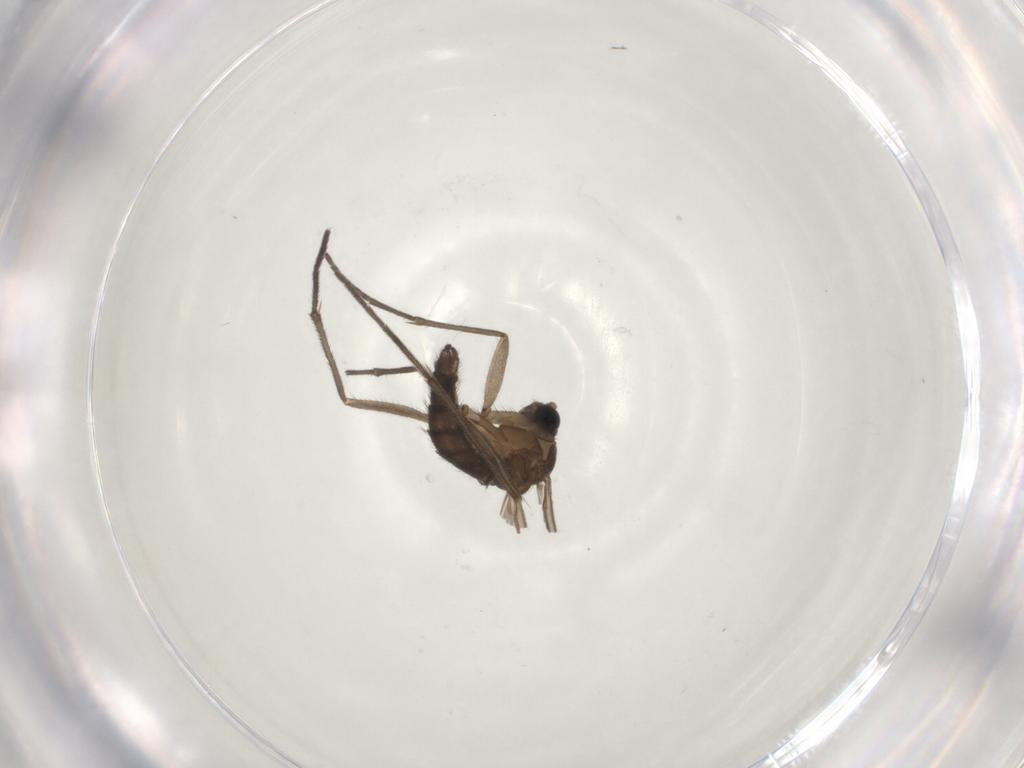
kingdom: Animalia
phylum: Arthropoda
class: Insecta
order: Diptera
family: Sciaridae
